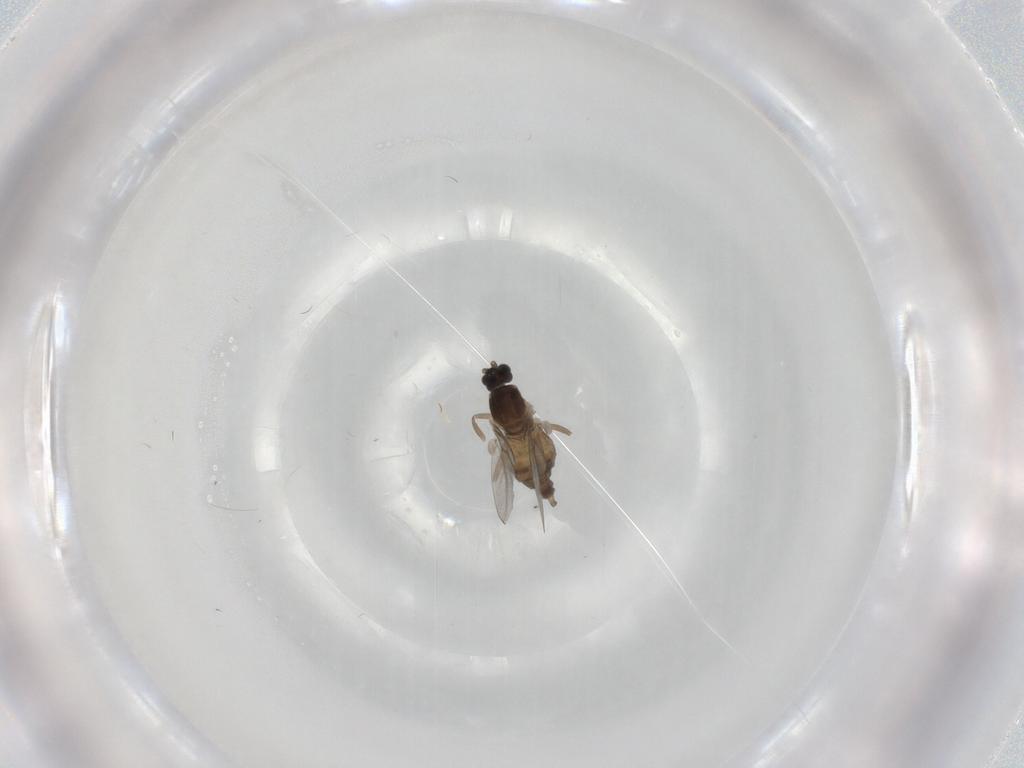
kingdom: Animalia
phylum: Arthropoda
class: Insecta
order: Diptera
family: Cecidomyiidae
